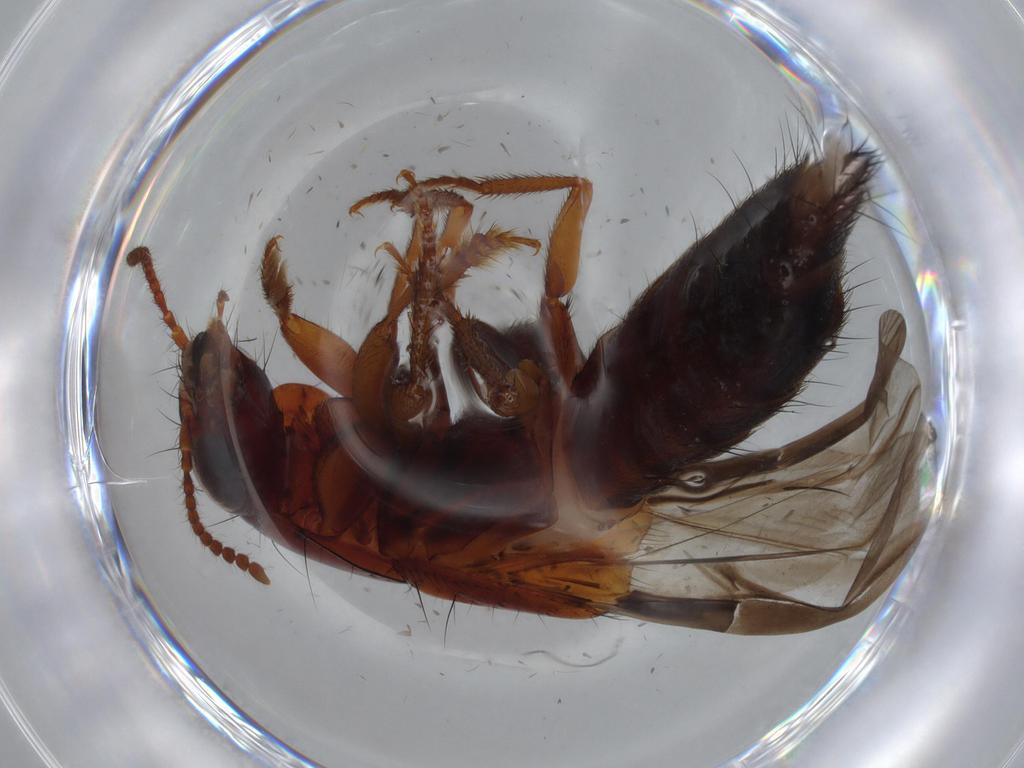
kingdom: Animalia
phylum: Arthropoda
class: Insecta
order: Coleoptera
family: Staphylinidae
